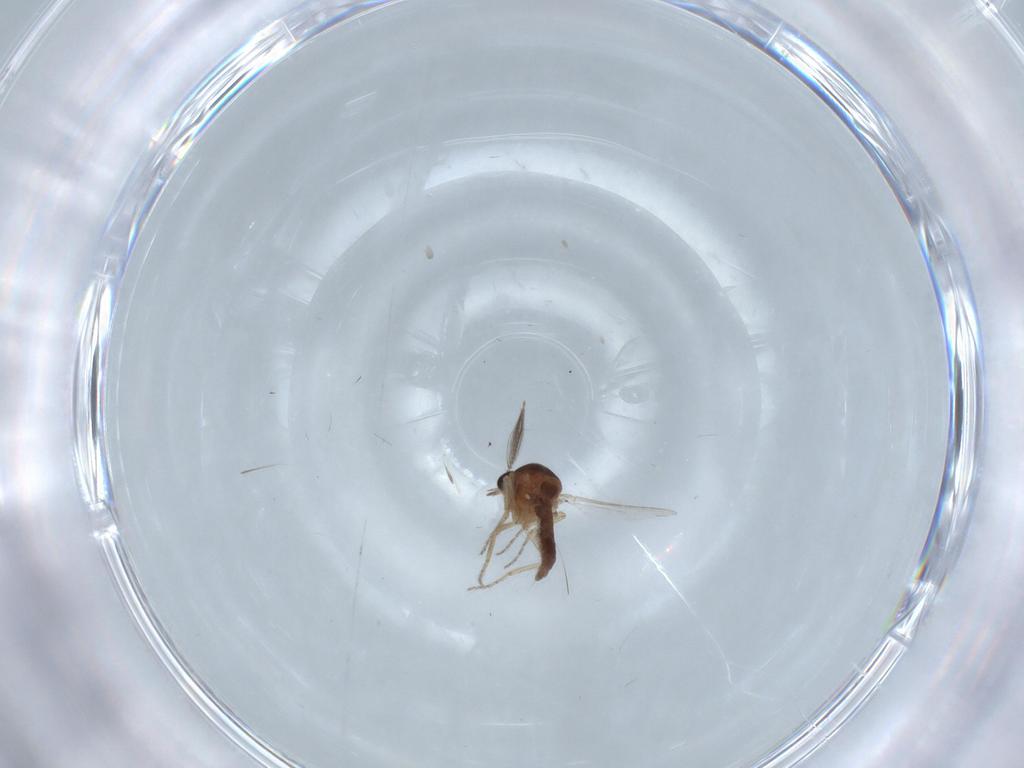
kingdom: Animalia
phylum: Arthropoda
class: Insecta
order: Diptera
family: Ceratopogonidae
